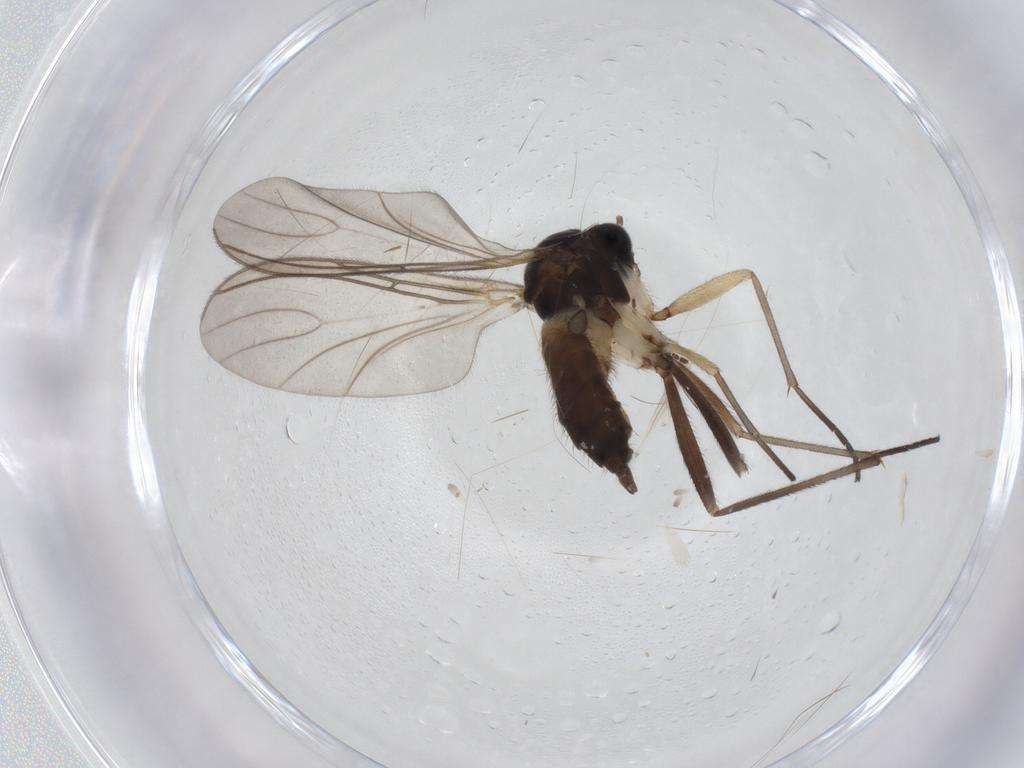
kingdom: Animalia
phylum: Arthropoda
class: Insecta
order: Diptera
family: Sciaridae
